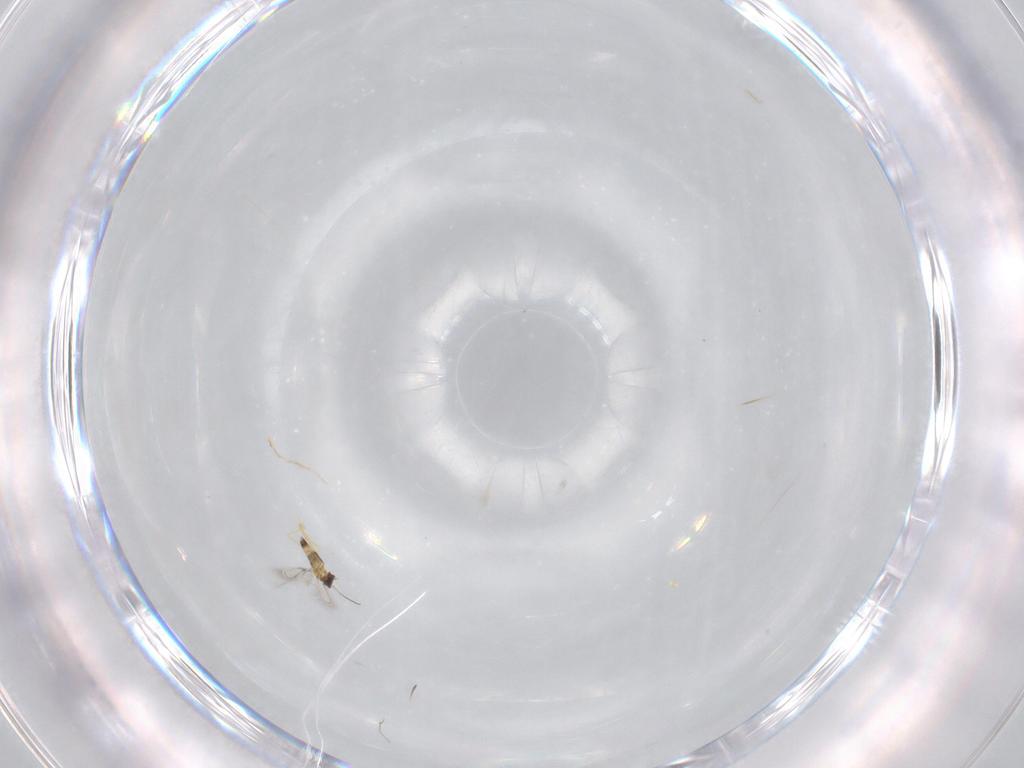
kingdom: Animalia
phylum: Arthropoda
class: Insecta
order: Hymenoptera
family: Mymaridae
